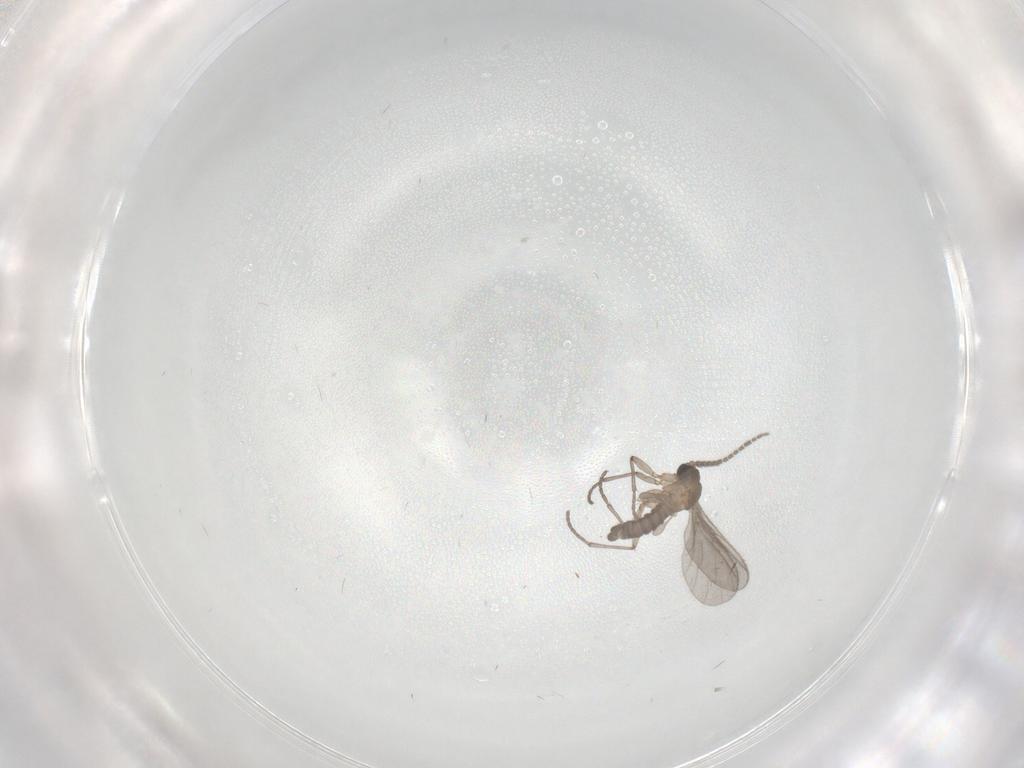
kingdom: Animalia
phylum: Arthropoda
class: Insecta
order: Diptera
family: Sciaridae
